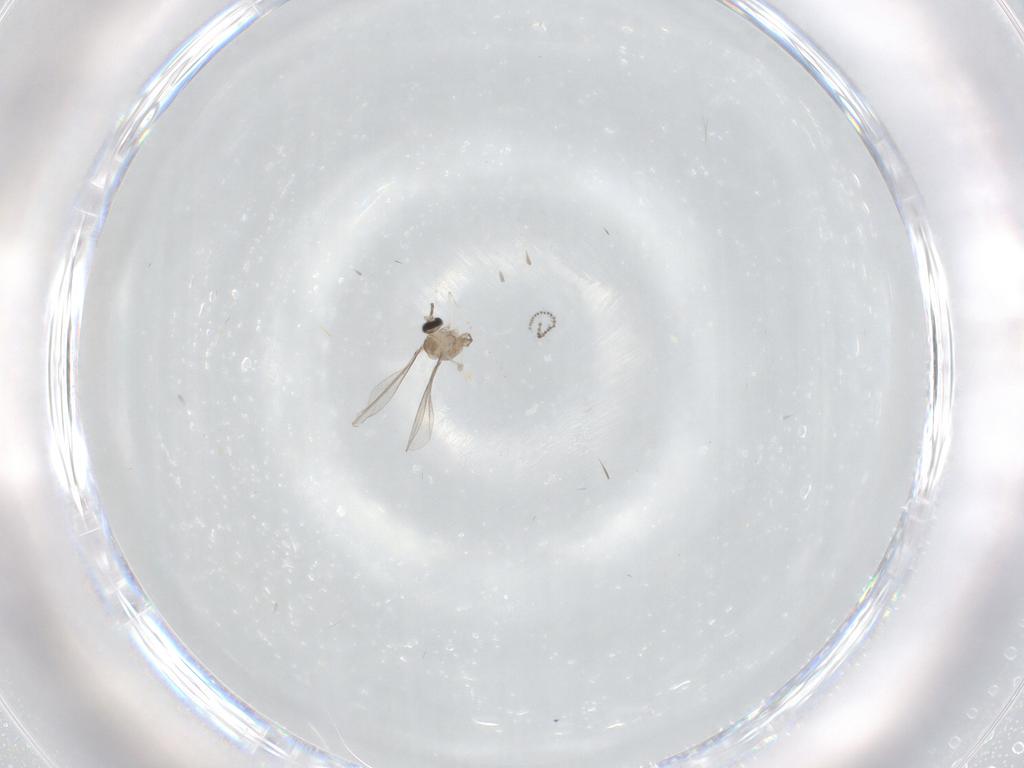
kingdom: Animalia
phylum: Arthropoda
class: Insecta
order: Diptera
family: Cecidomyiidae
